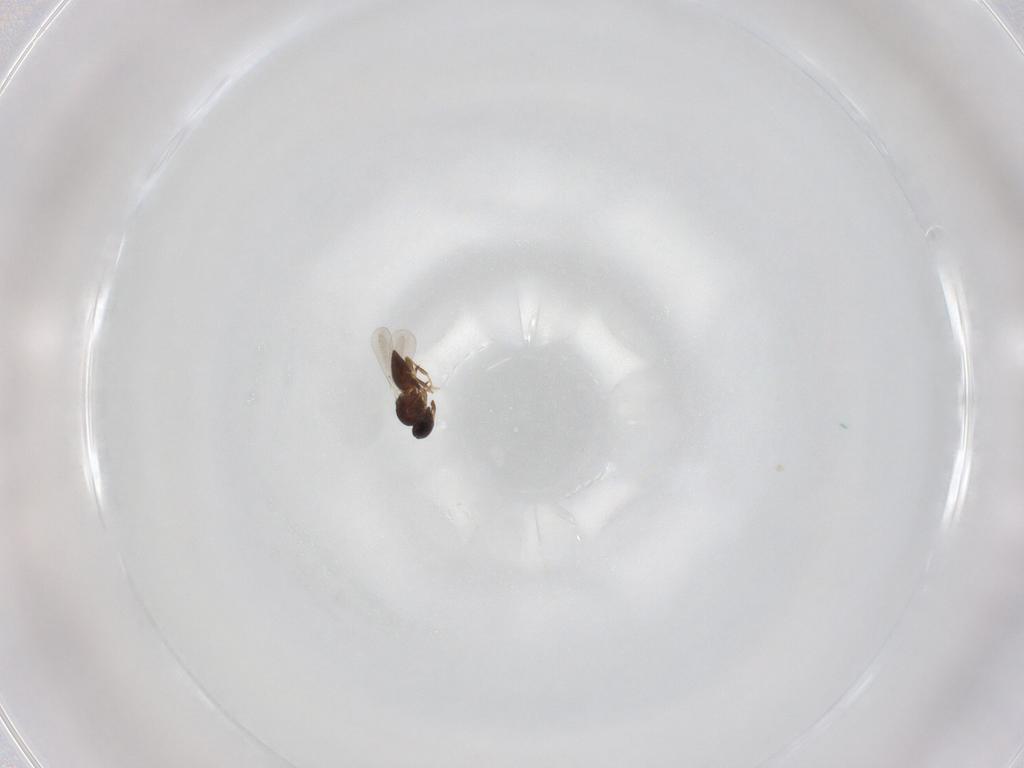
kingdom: Animalia
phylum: Arthropoda
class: Insecta
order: Hymenoptera
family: Platygastridae
